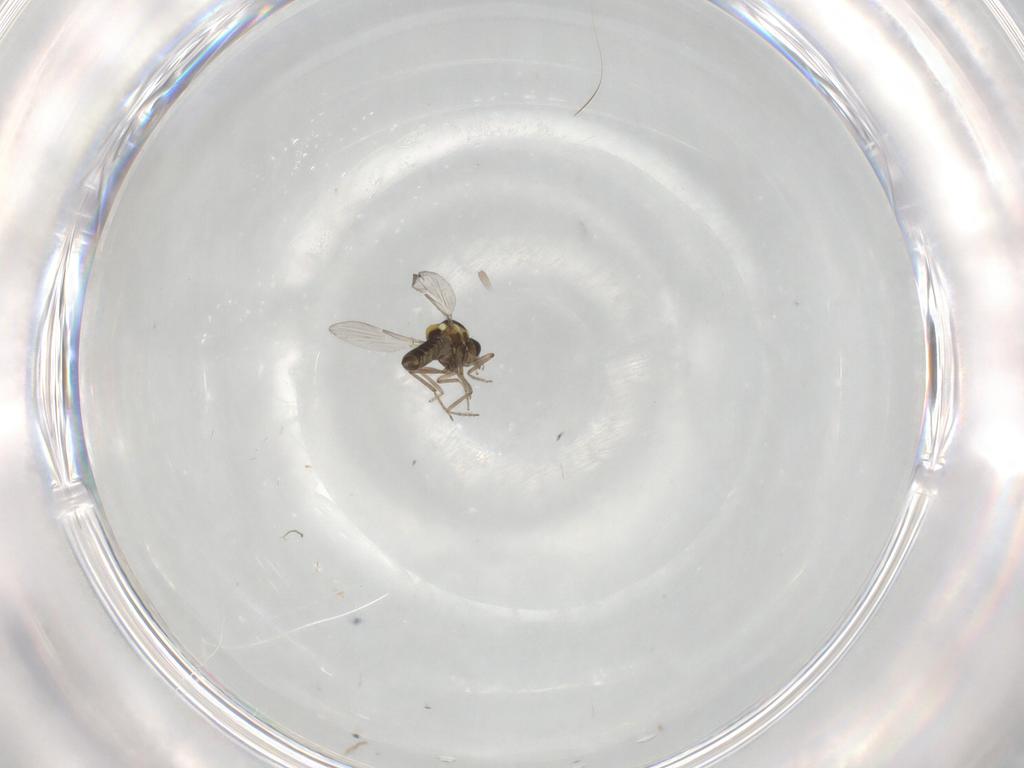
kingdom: Animalia
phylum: Arthropoda
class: Insecta
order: Diptera
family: Ceratopogonidae
